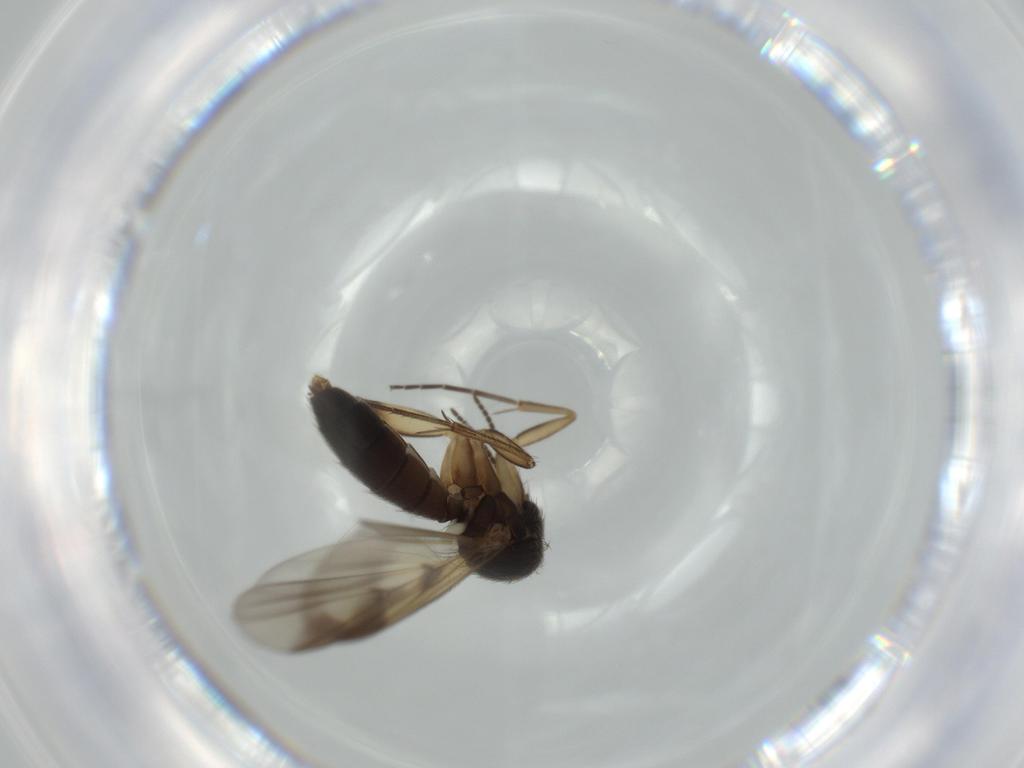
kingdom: Animalia
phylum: Arthropoda
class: Insecta
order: Diptera
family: Mycetophilidae
